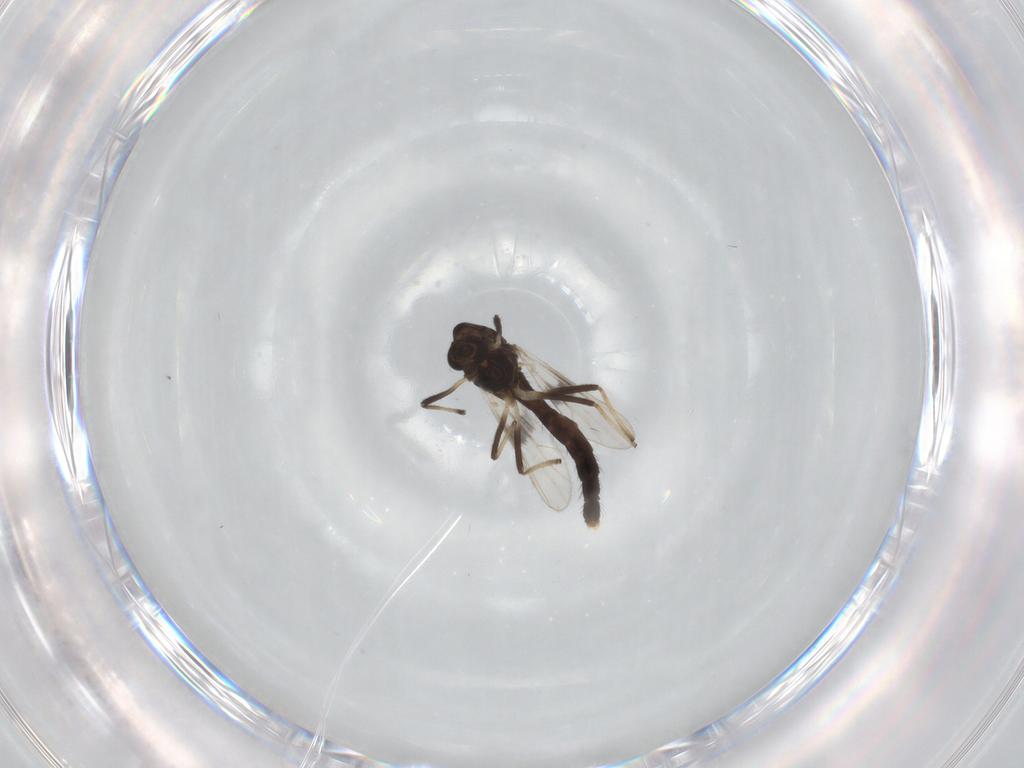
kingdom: Animalia
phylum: Arthropoda
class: Insecta
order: Diptera
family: Chironomidae
